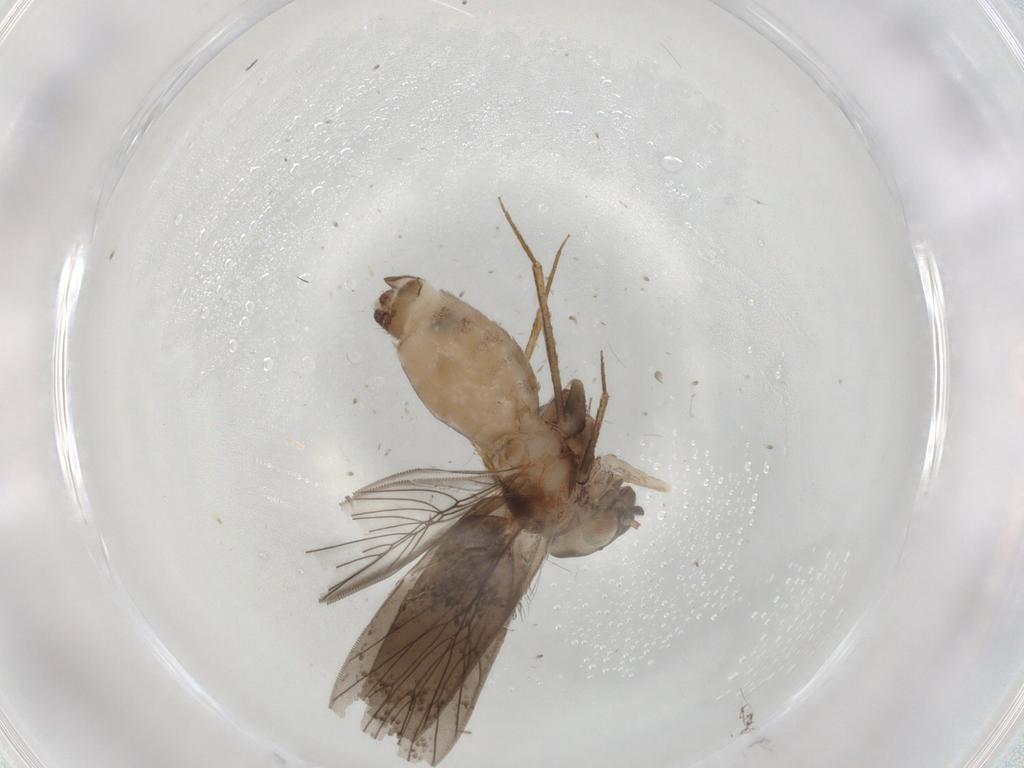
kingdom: Animalia
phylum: Arthropoda
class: Insecta
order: Psocodea
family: Lepidopsocidae
